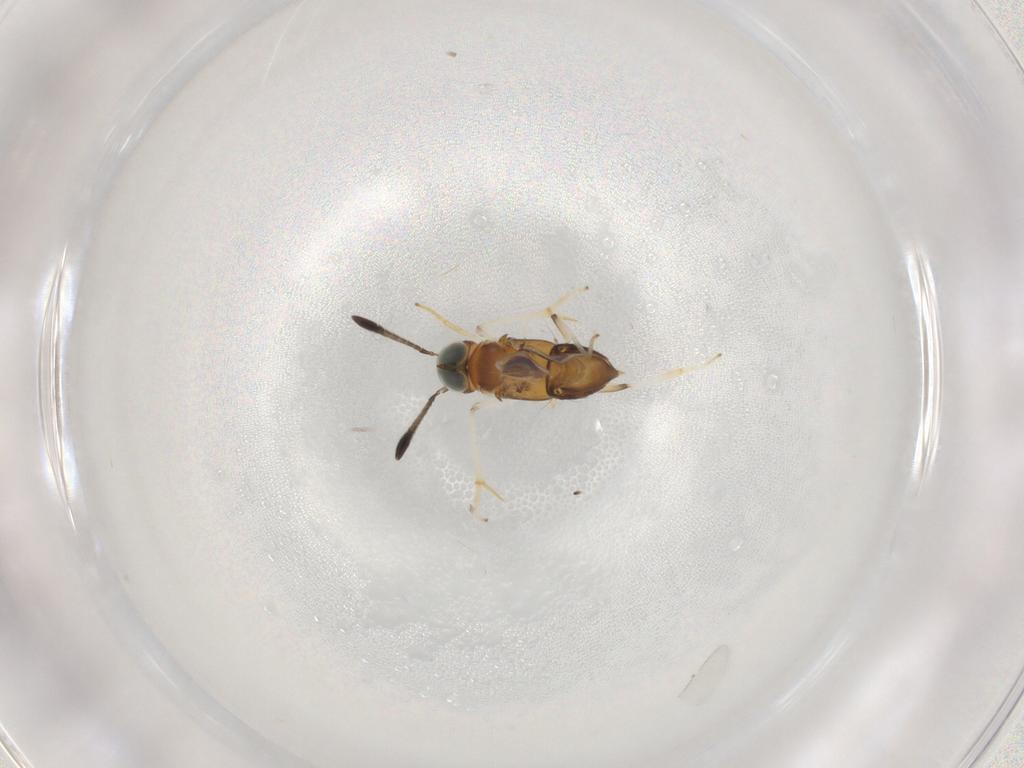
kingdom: Animalia
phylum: Arthropoda
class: Insecta
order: Hymenoptera
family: Encyrtidae
